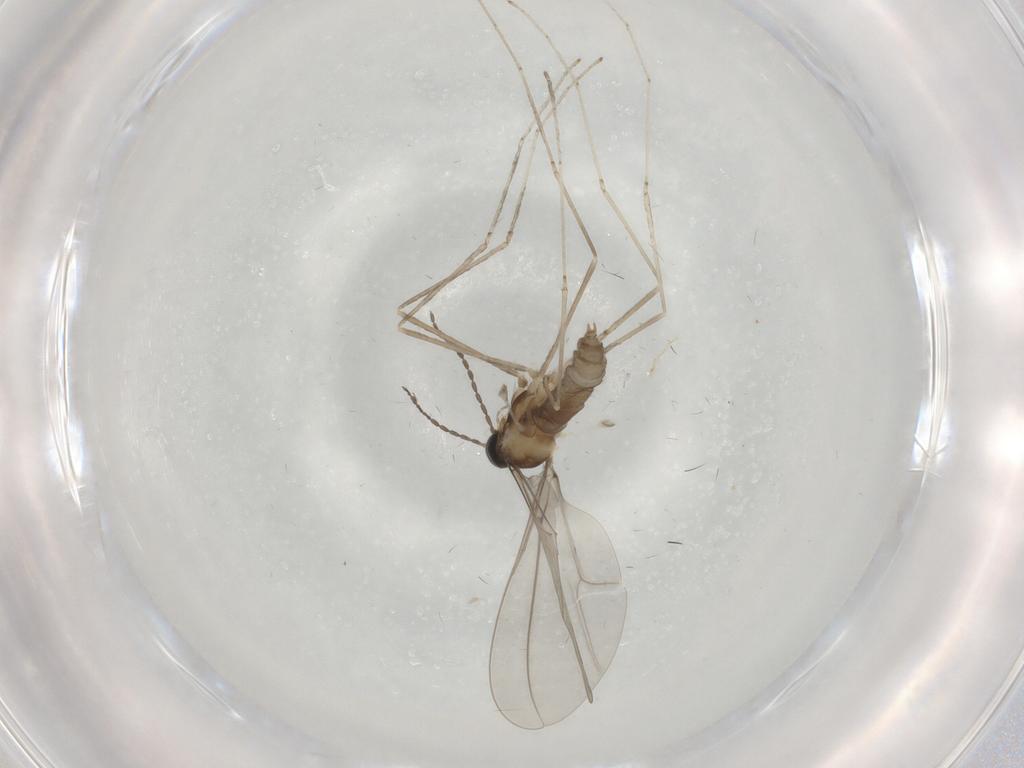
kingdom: Animalia
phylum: Arthropoda
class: Insecta
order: Diptera
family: Cecidomyiidae
